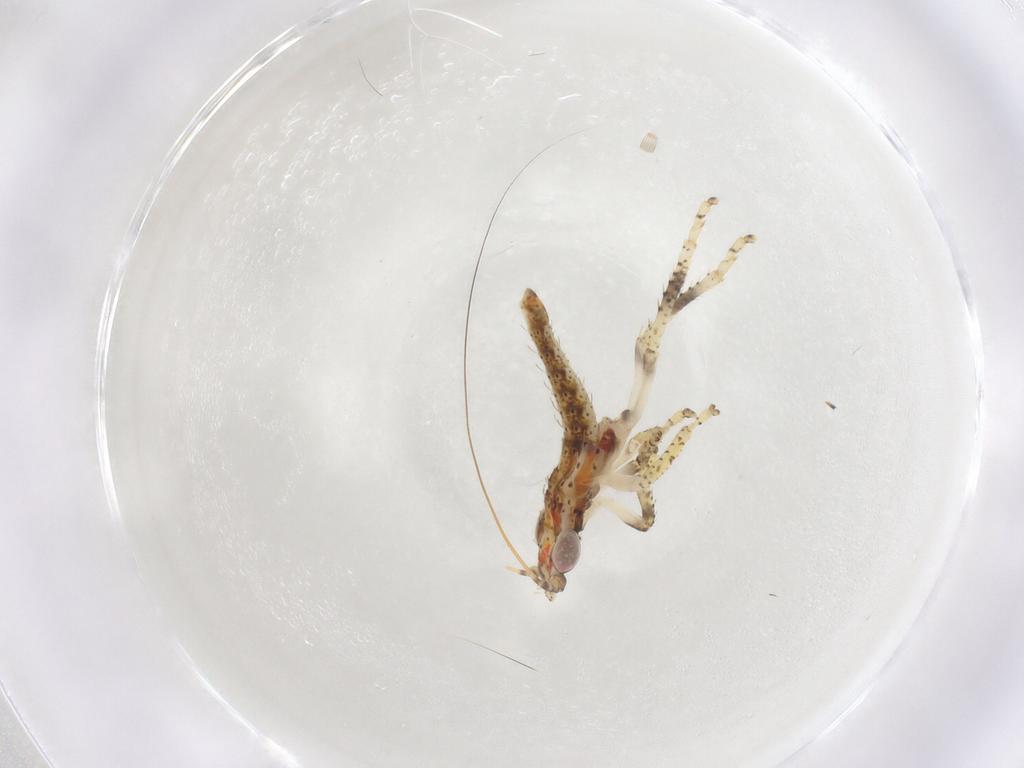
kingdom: Animalia
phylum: Arthropoda
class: Insecta
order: Hemiptera
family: Cicadellidae
